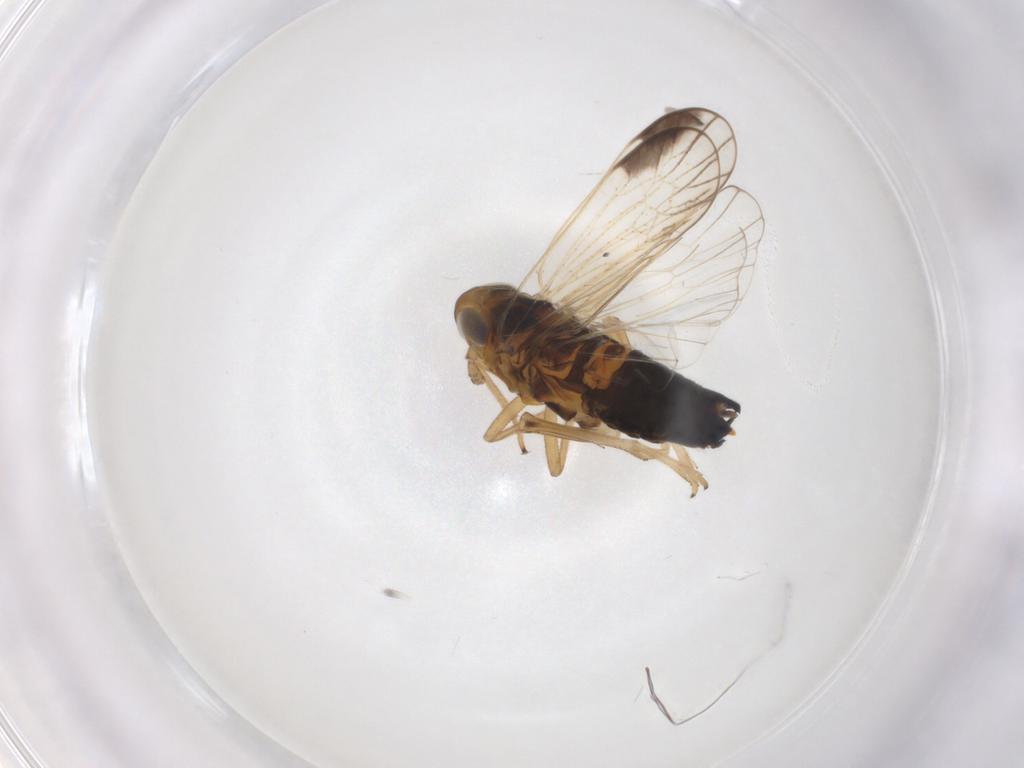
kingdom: Animalia
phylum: Arthropoda
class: Insecta
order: Hemiptera
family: Delphacidae
